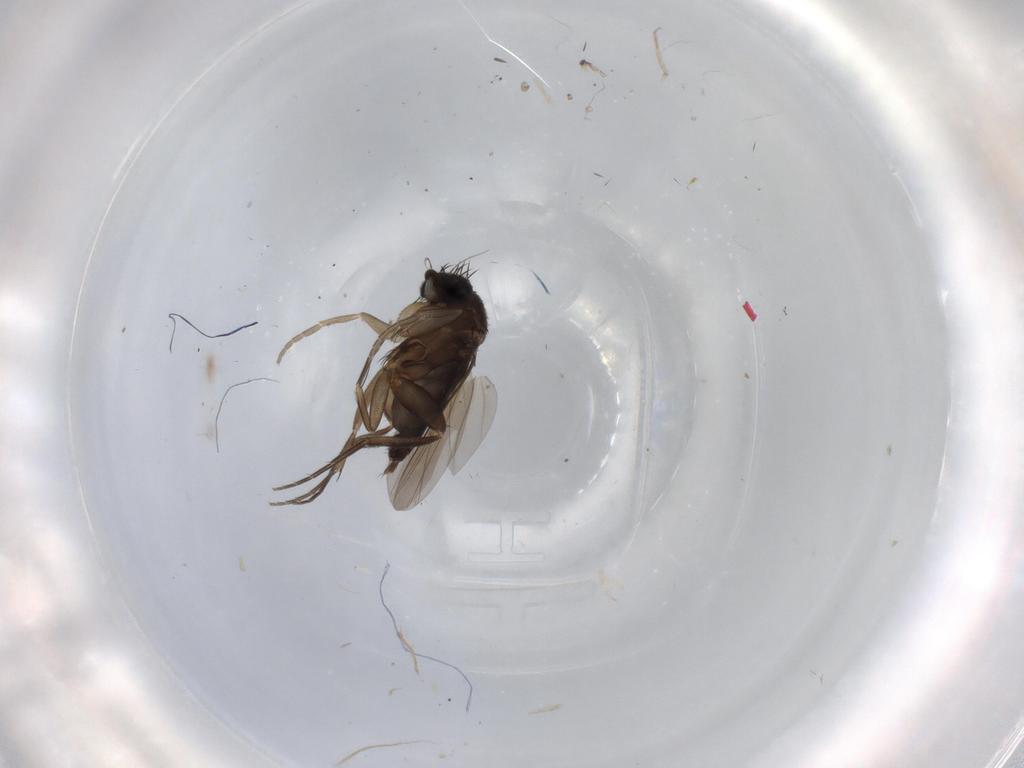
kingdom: Animalia
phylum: Arthropoda
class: Insecta
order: Diptera
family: Phoridae
